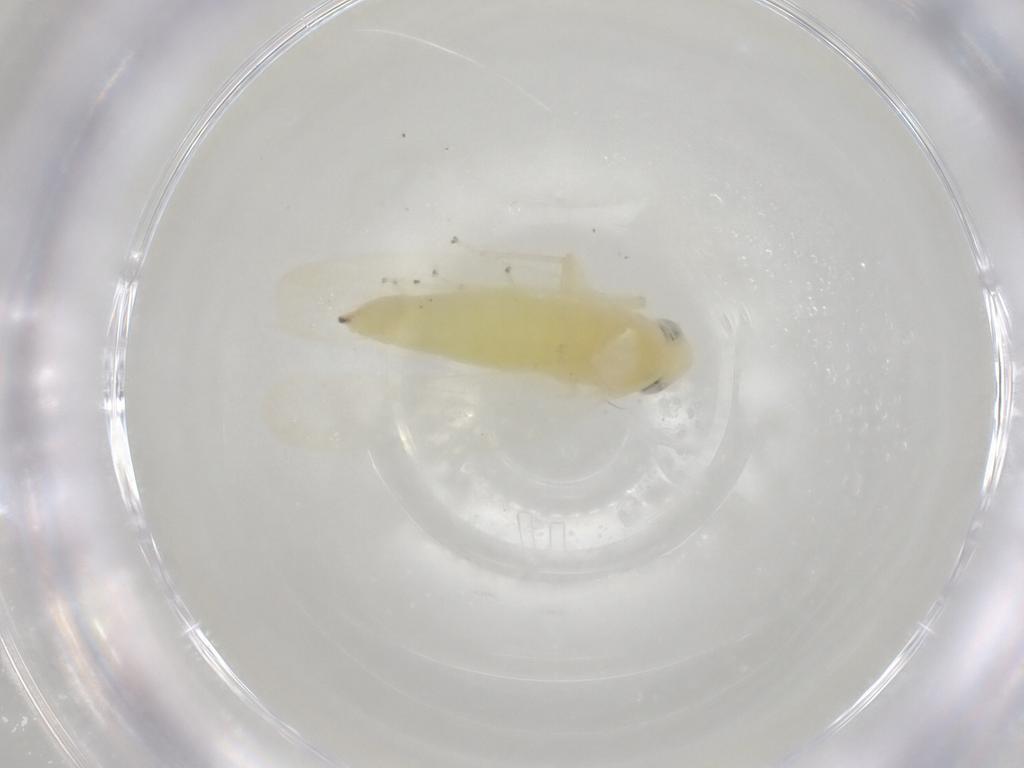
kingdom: Animalia
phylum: Arthropoda
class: Insecta
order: Hemiptera
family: Cicadellidae
